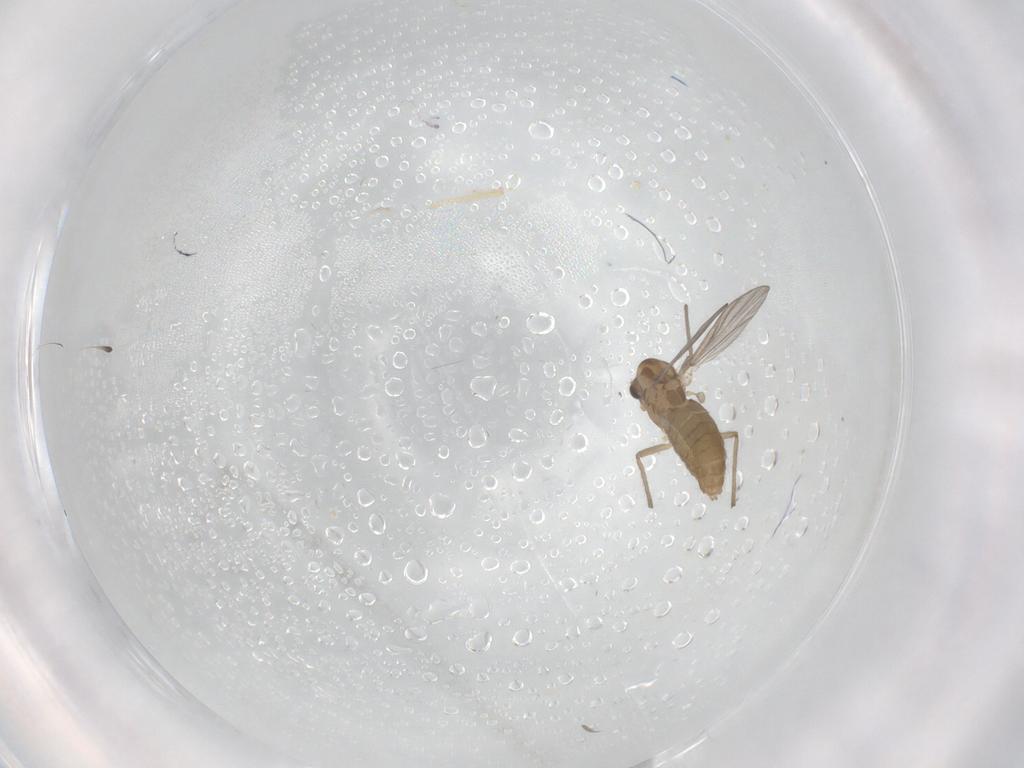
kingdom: Animalia
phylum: Arthropoda
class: Insecta
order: Diptera
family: Chironomidae
